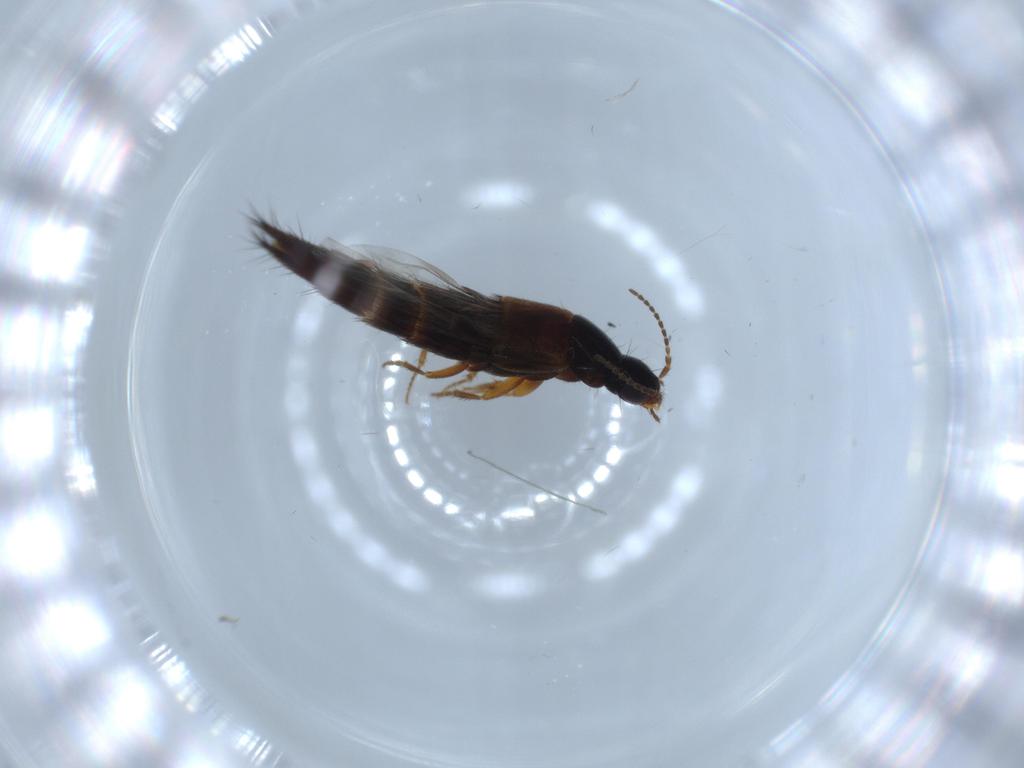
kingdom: Animalia
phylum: Arthropoda
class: Insecta
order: Coleoptera
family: Staphylinidae
